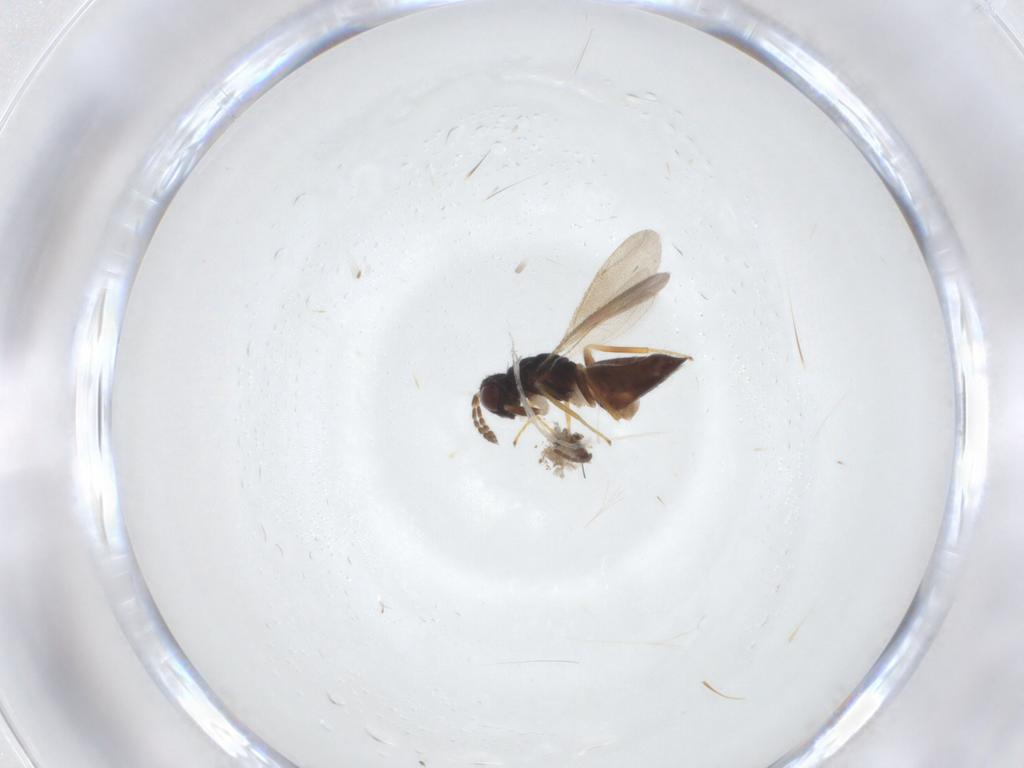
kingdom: Animalia
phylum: Arthropoda
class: Insecta
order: Hymenoptera
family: Eulophidae
